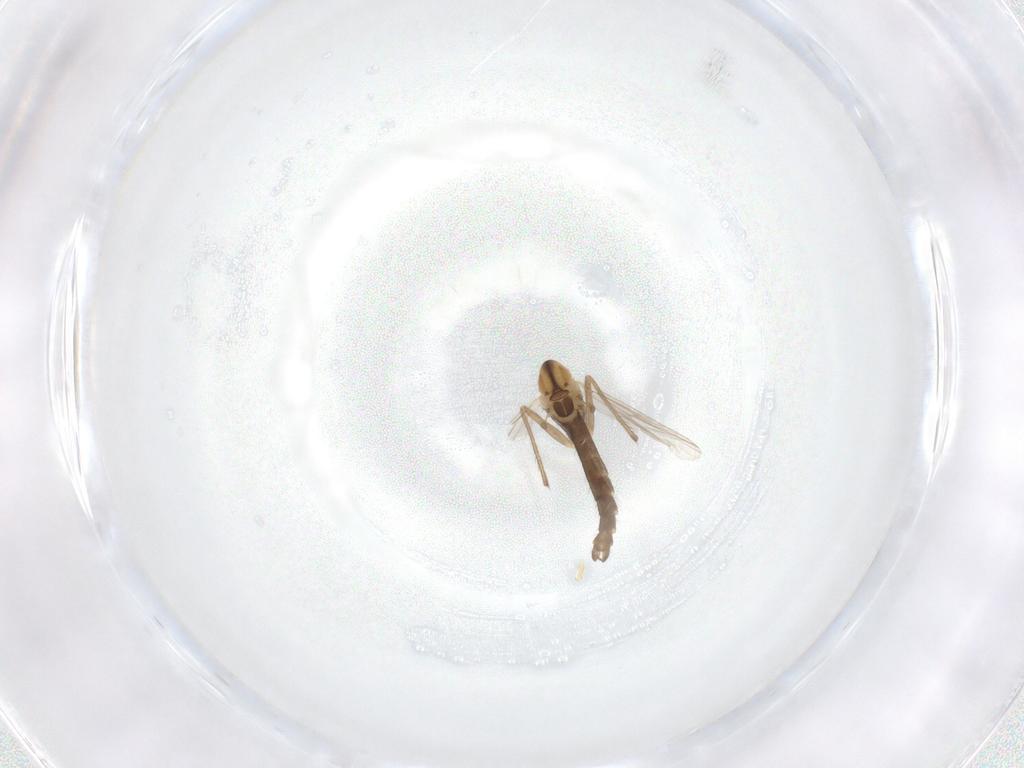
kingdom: Animalia
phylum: Arthropoda
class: Insecta
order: Diptera
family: Chironomidae
